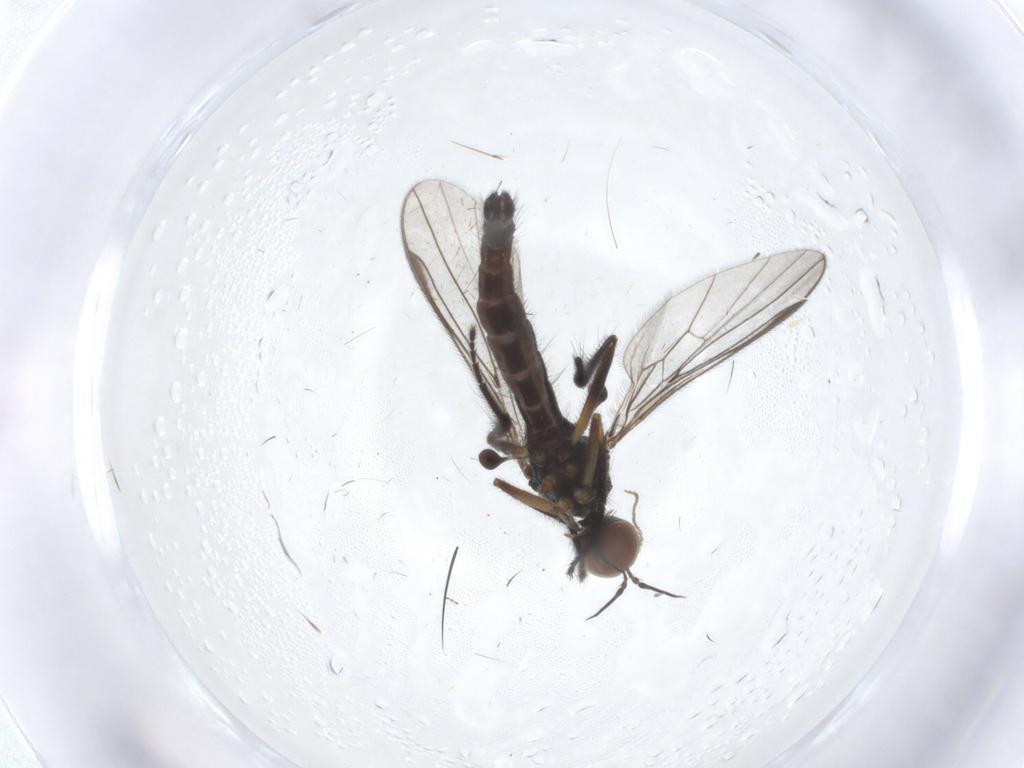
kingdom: Animalia
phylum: Arthropoda
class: Insecta
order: Diptera
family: Empididae
